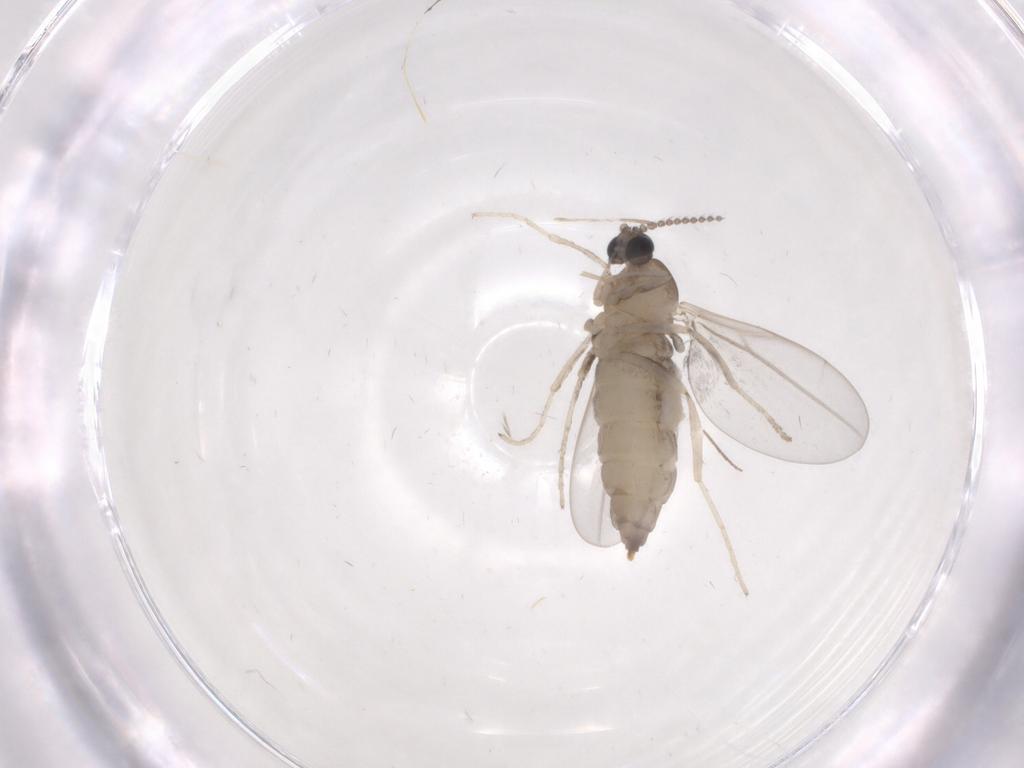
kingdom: Animalia
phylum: Arthropoda
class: Insecta
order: Diptera
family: Cecidomyiidae
